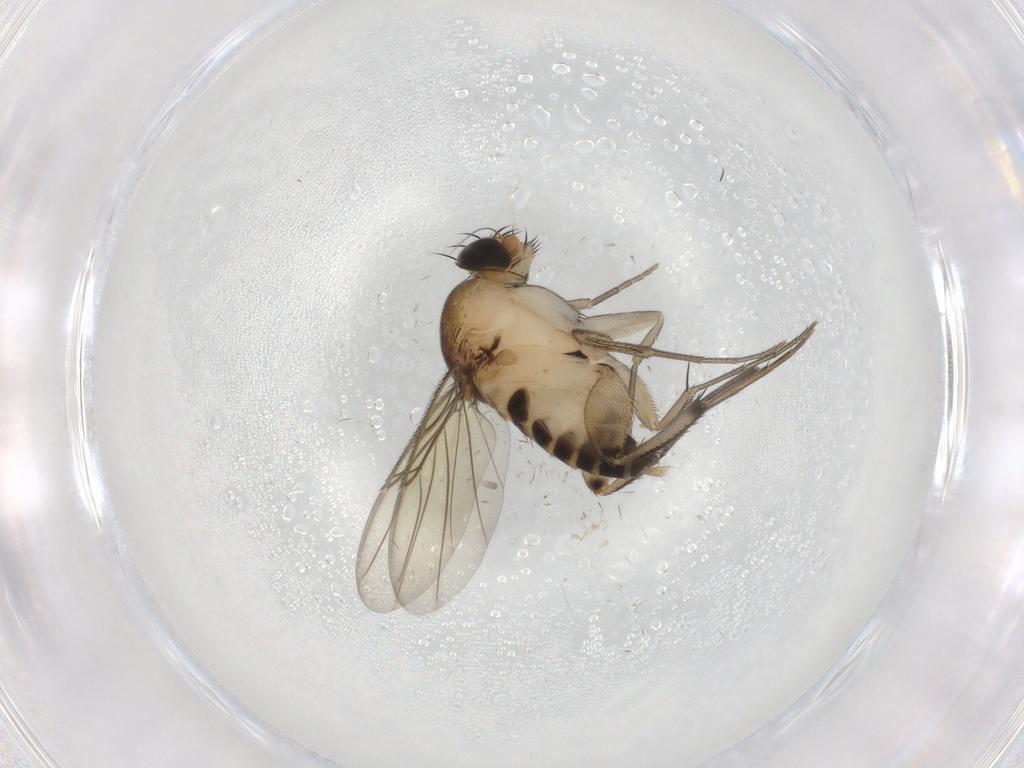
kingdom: Animalia
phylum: Arthropoda
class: Insecta
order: Diptera
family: Phoridae
